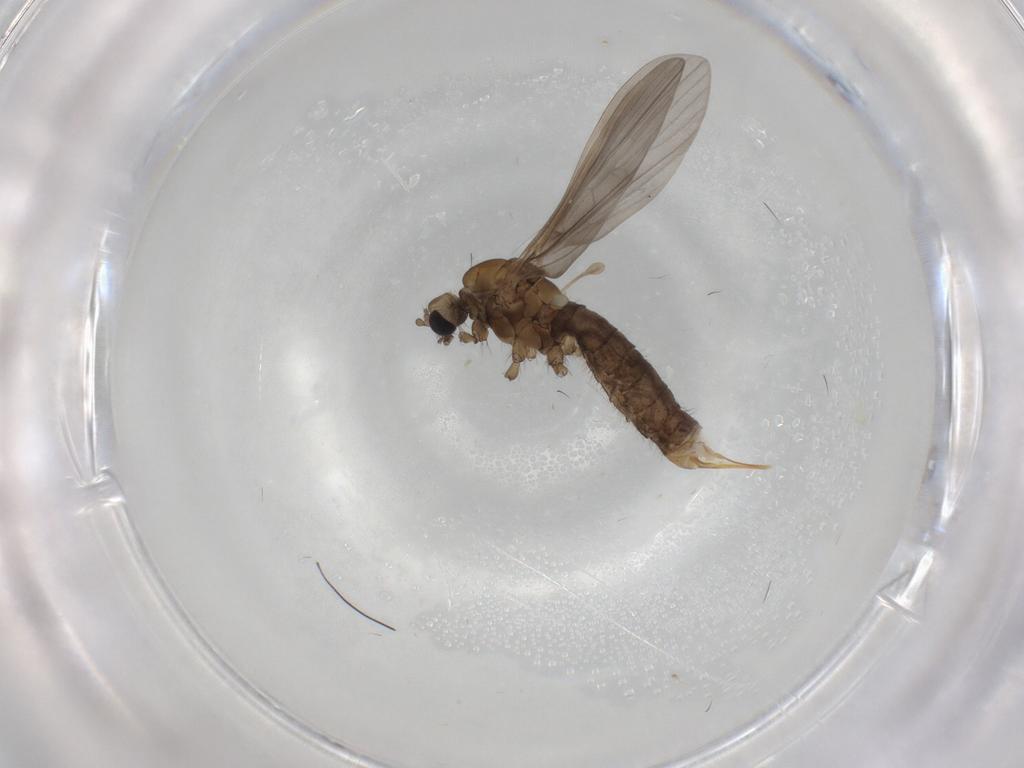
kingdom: Animalia
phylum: Arthropoda
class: Insecta
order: Diptera
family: Limoniidae
